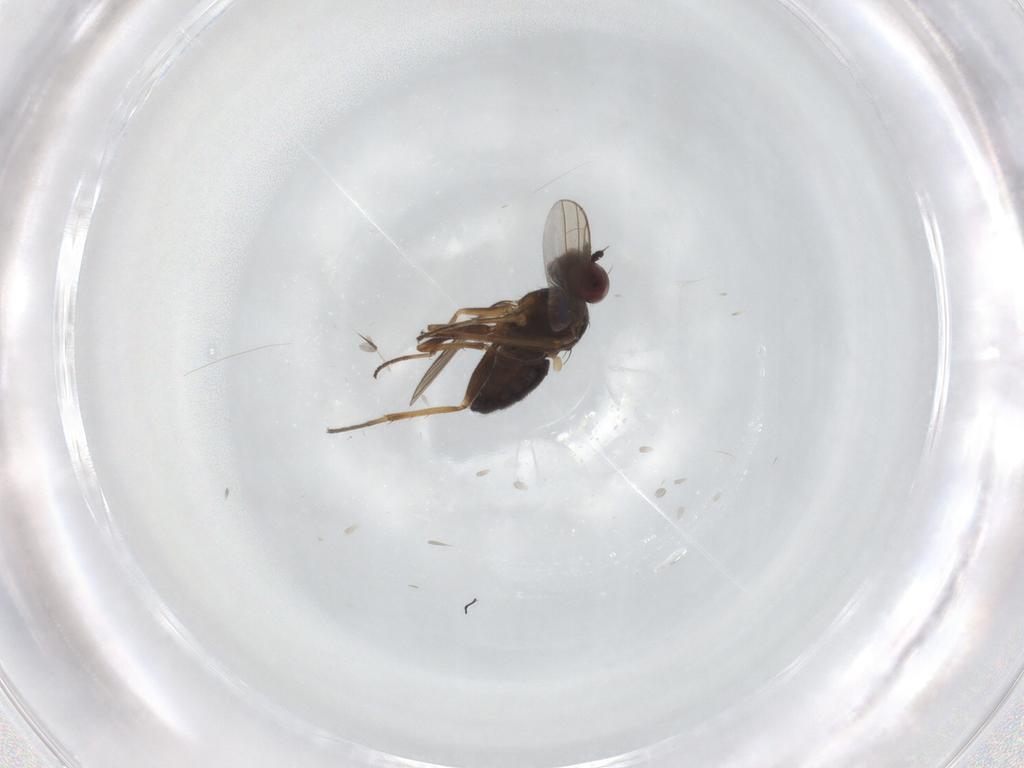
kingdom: Animalia
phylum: Arthropoda
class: Insecta
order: Diptera
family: Dolichopodidae
